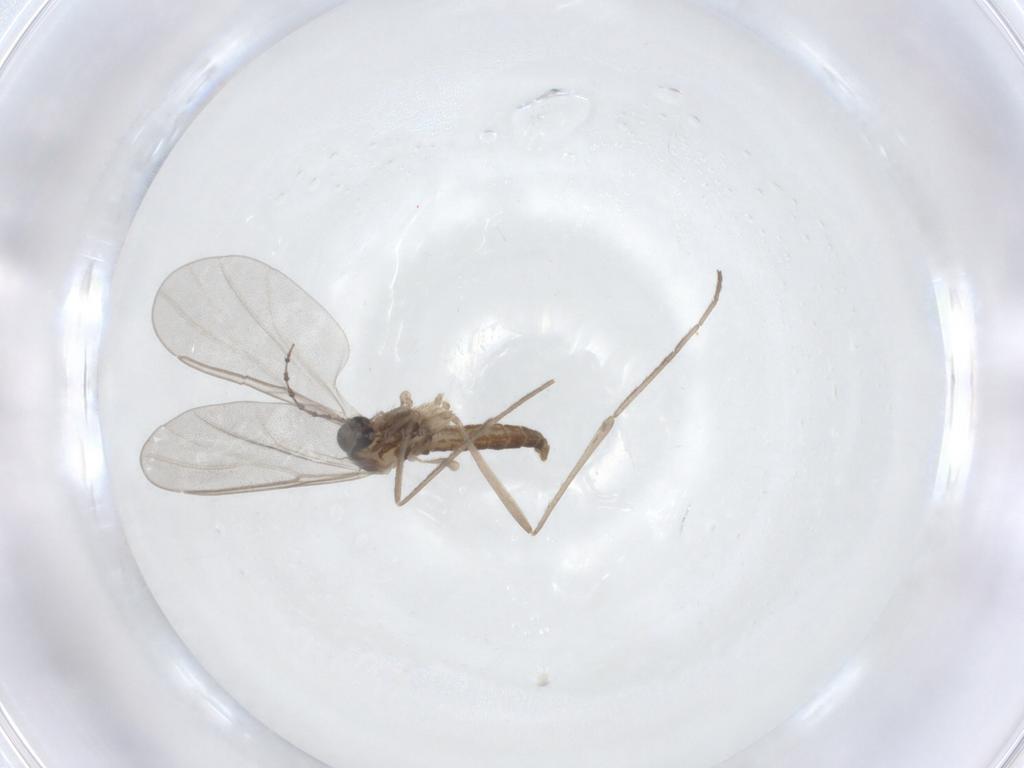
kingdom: Animalia
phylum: Arthropoda
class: Insecta
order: Diptera
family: Cecidomyiidae
